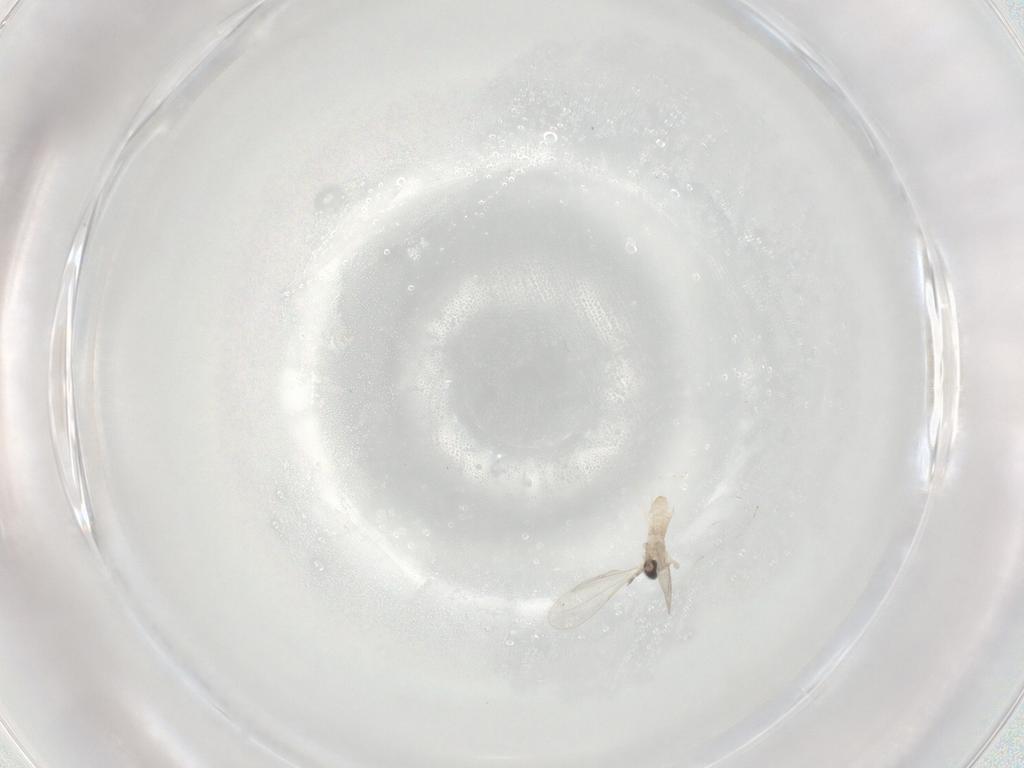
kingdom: Animalia
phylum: Arthropoda
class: Insecta
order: Diptera
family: Cecidomyiidae
